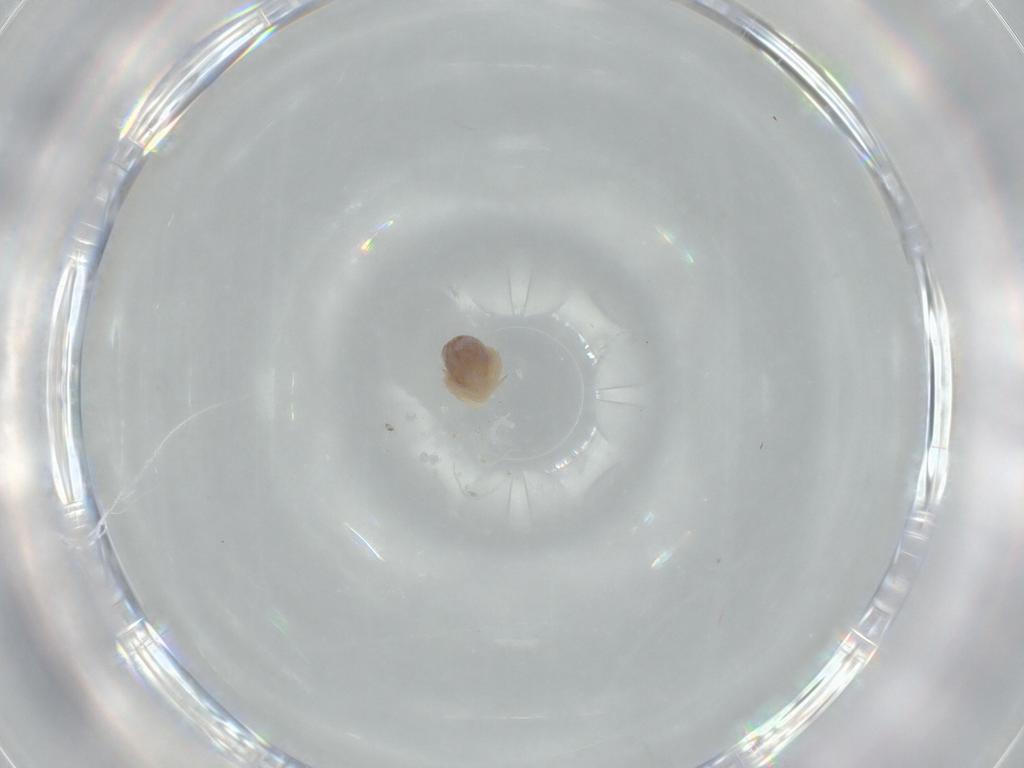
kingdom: Animalia
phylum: Arthropoda
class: Arachnida
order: Araneae
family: Pholcidae
